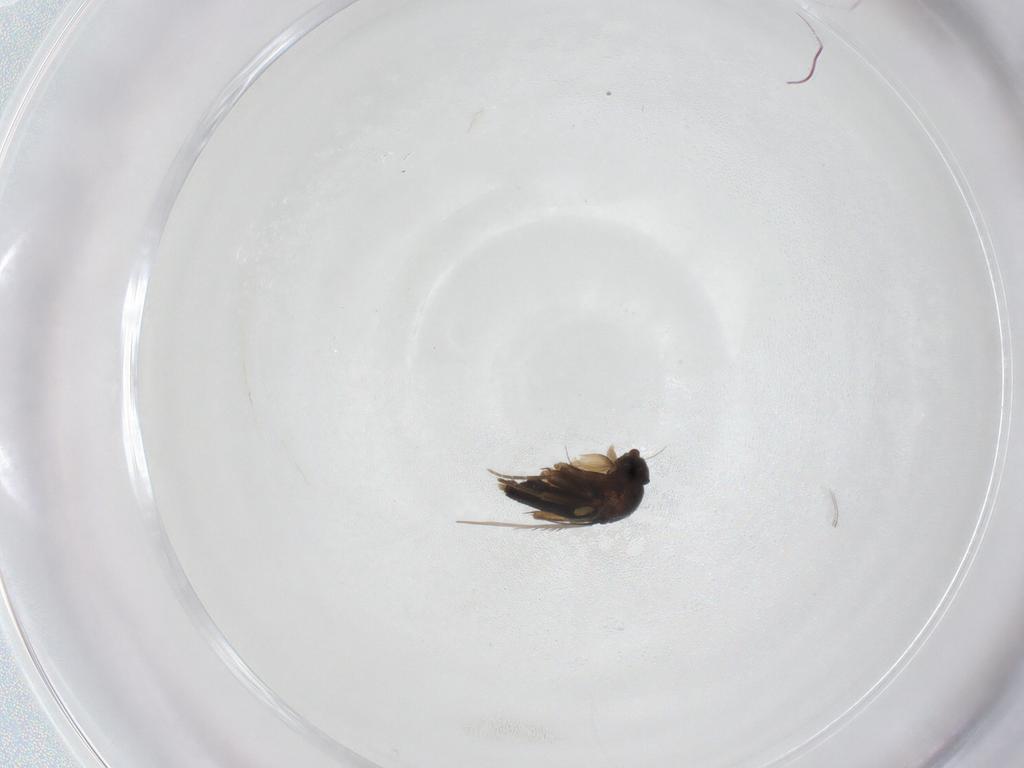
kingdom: Animalia
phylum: Arthropoda
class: Insecta
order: Diptera
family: Phoridae
